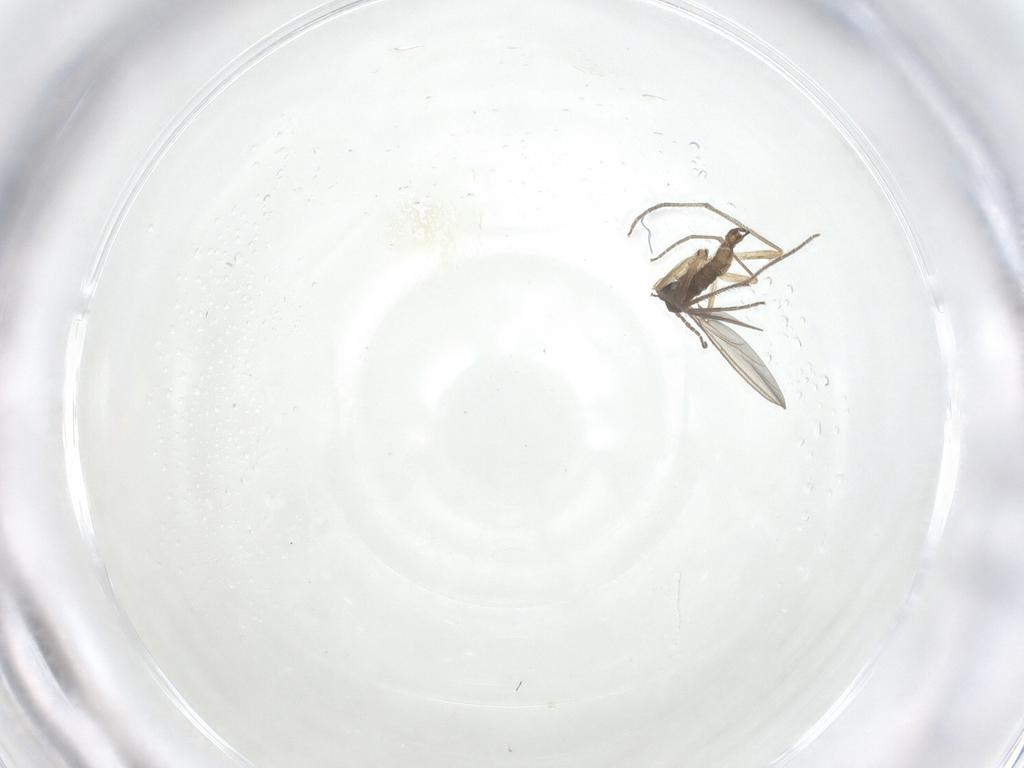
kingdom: Animalia
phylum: Arthropoda
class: Insecta
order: Diptera
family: Sciaridae
